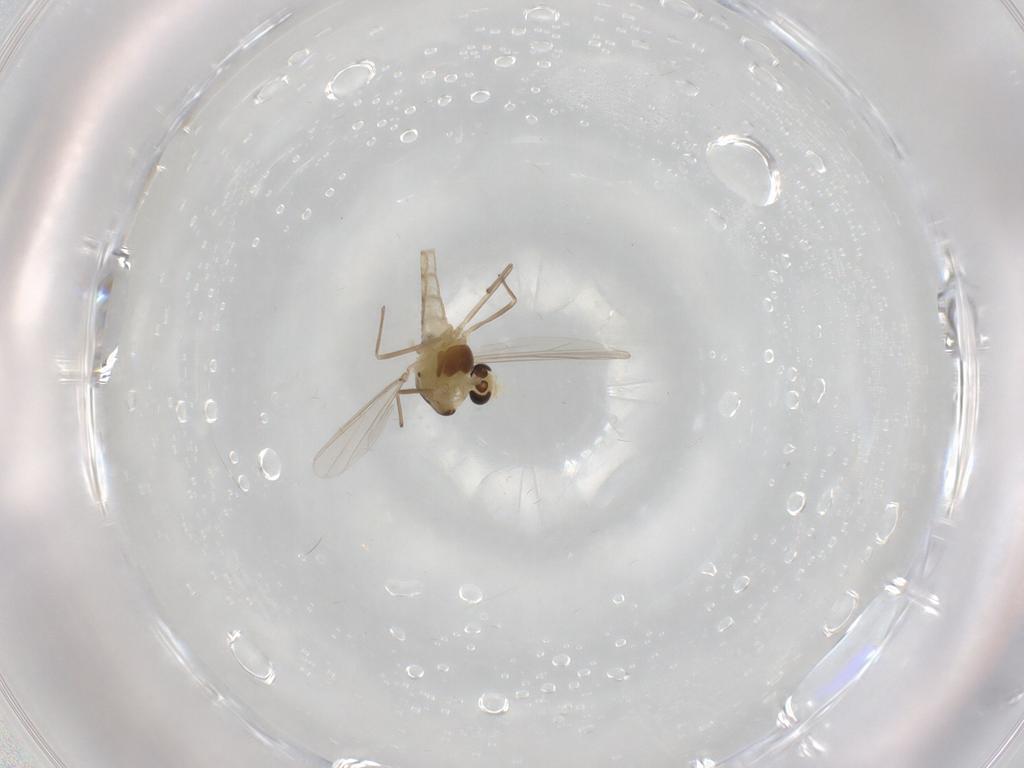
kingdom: Animalia
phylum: Arthropoda
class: Insecta
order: Diptera
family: Chironomidae
